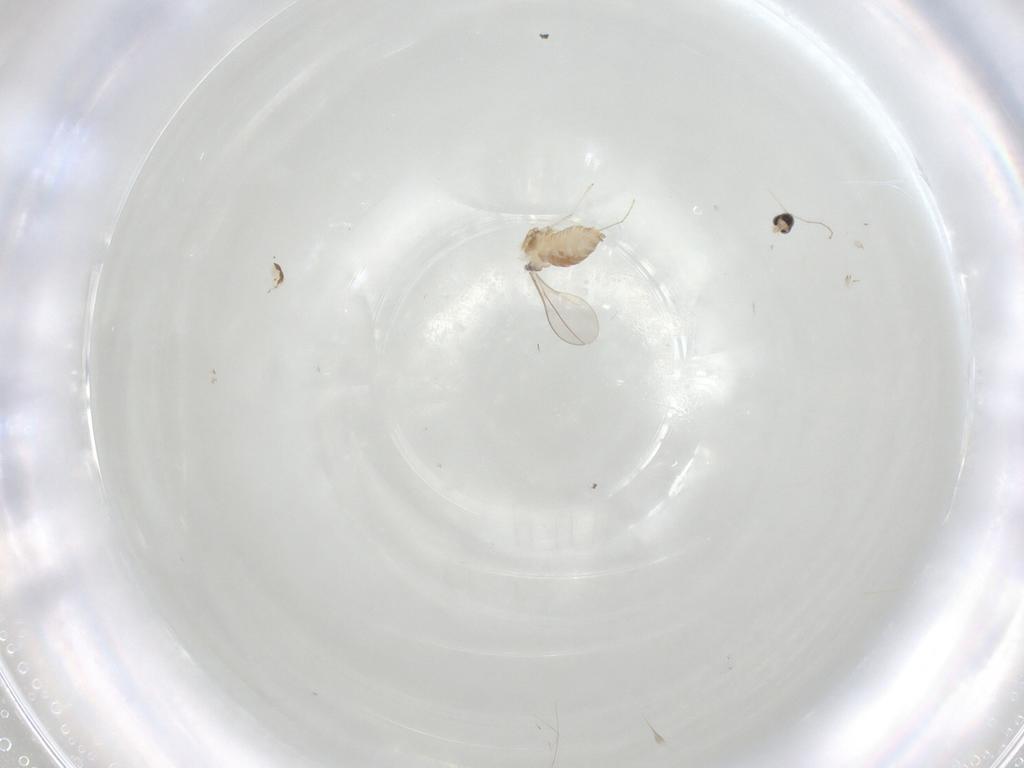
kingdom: Animalia
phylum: Arthropoda
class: Insecta
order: Diptera
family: Cecidomyiidae
